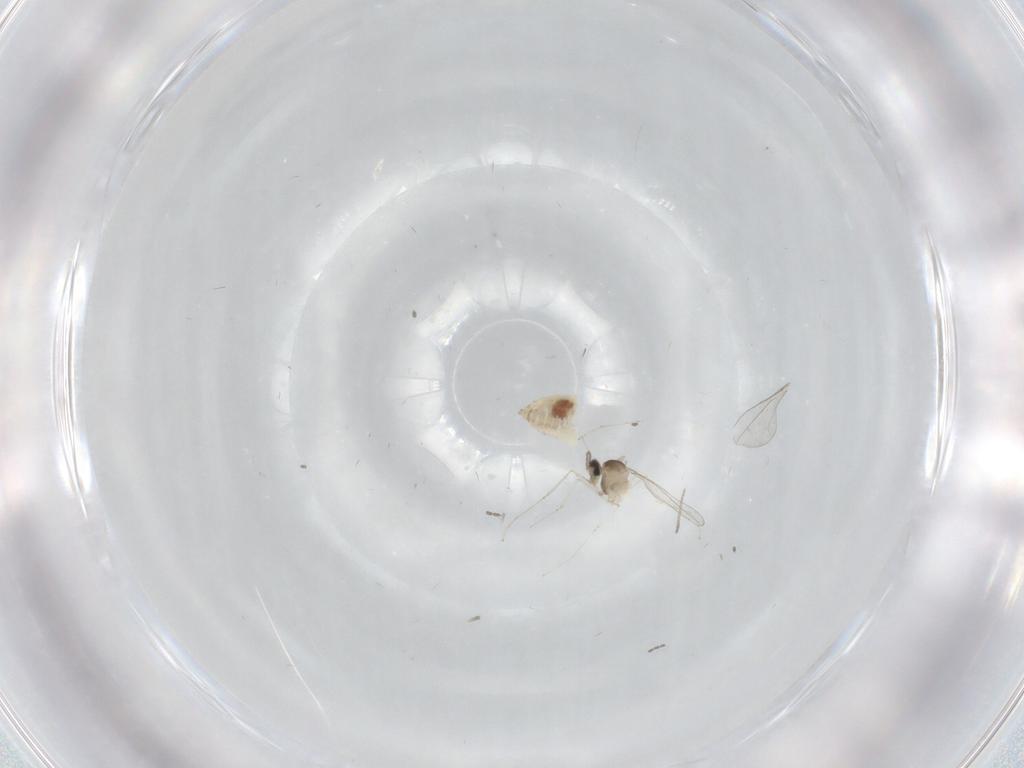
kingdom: Animalia
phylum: Arthropoda
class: Insecta
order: Diptera
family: Cecidomyiidae
